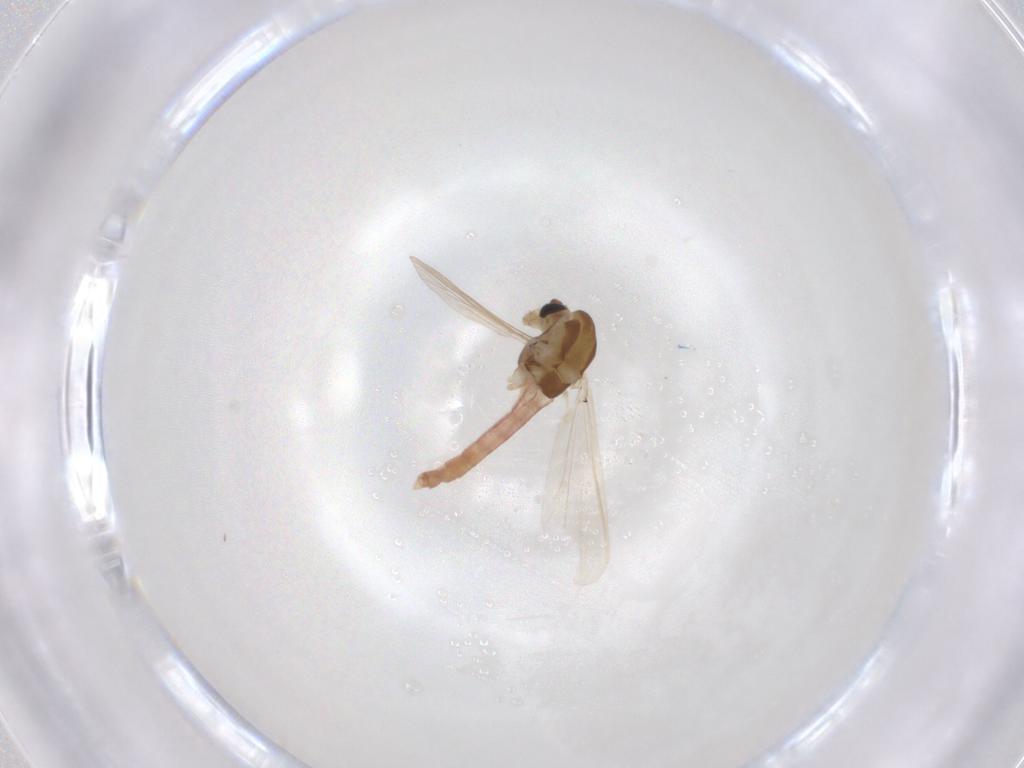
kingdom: Animalia
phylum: Arthropoda
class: Insecta
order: Diptera
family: Chironomidae
